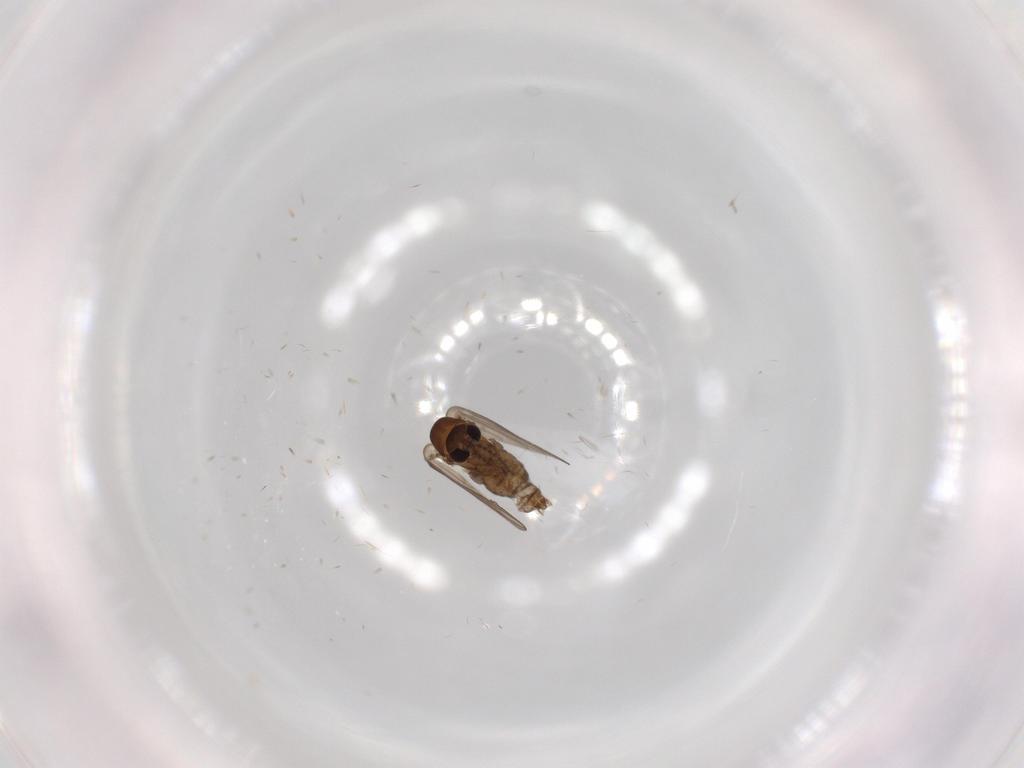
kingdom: Animalia
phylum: Arthropoda
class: Insecta
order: Diptera
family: Psychodidae
